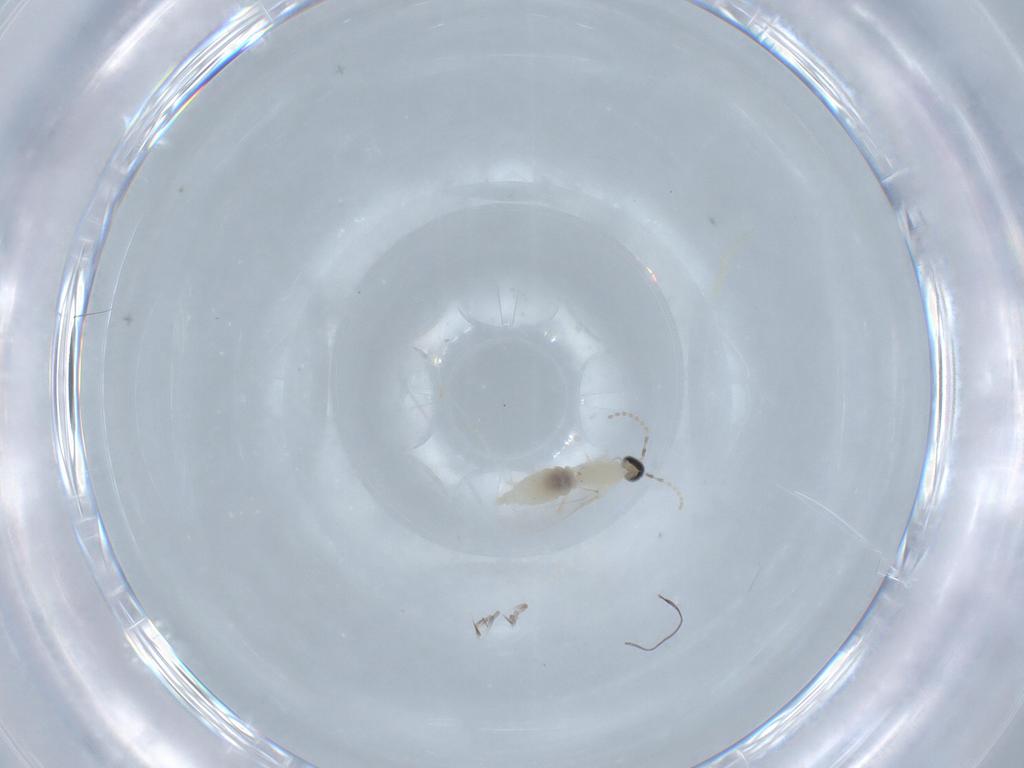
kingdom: Animalia
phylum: Arthropoda
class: Insecta
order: Diptera
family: Cecidomyiidae
